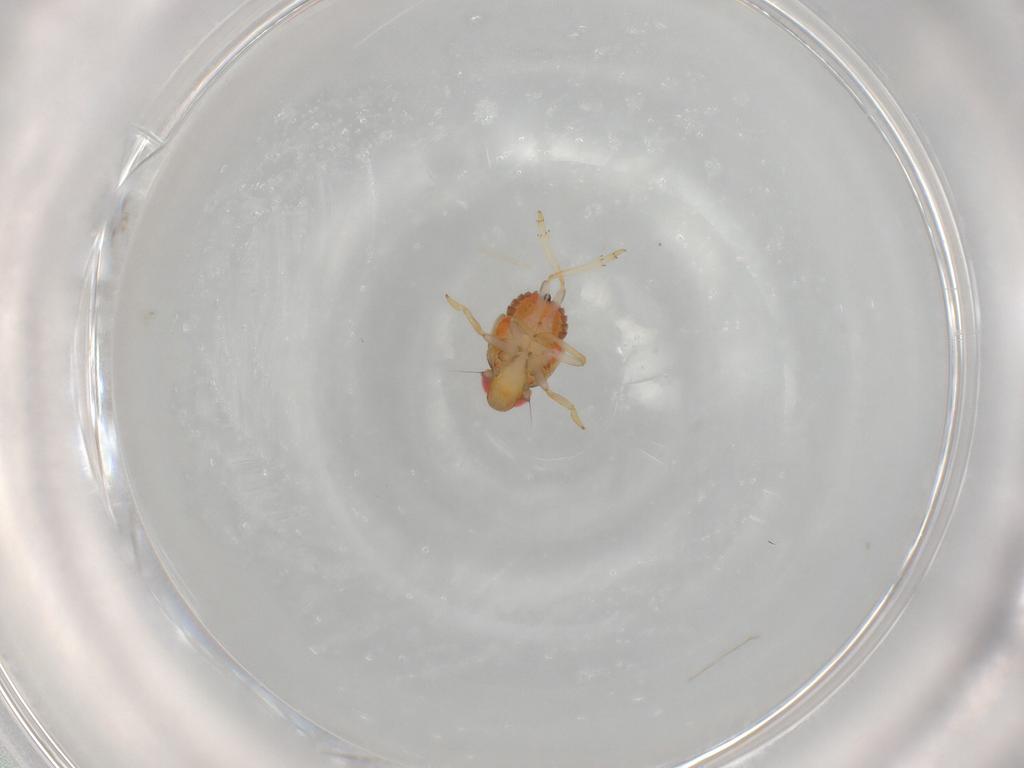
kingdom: Animalia
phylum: Arthropoda
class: Insecta
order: Hemiptera
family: Issidae
